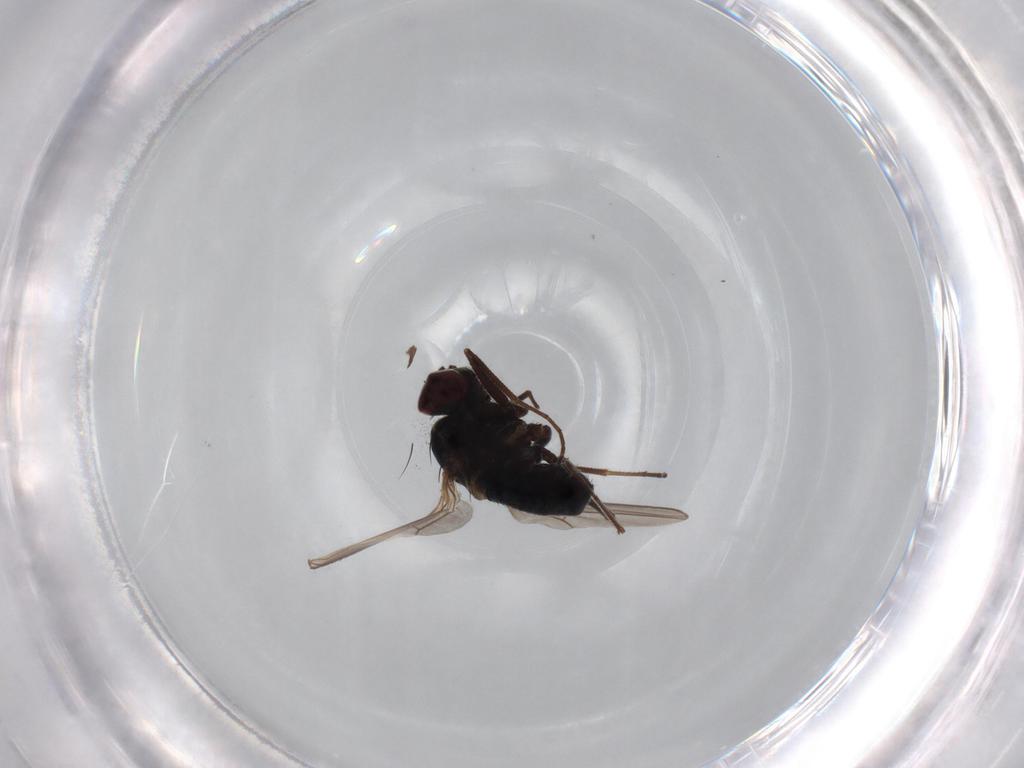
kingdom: Animalia
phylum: Arthropoda
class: Insecta
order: Diptera
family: Dolichopodidae
